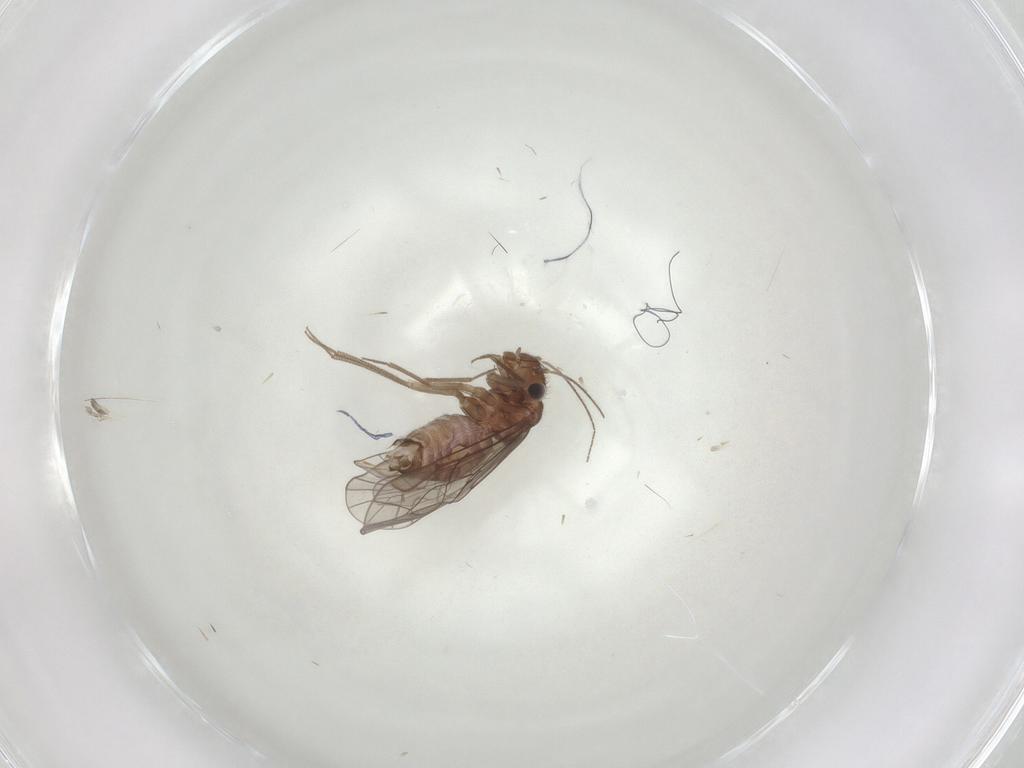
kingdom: Animalia
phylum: Arthropoda
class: Insecta
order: Psocodea
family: Lachesillidae
